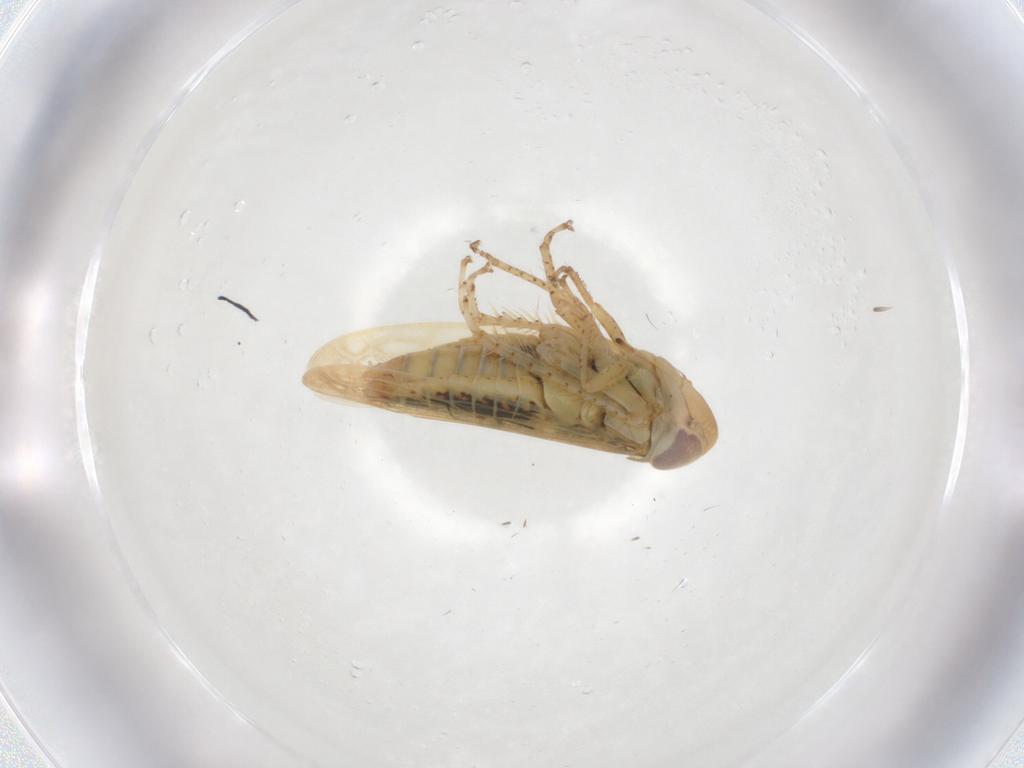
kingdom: Animalia
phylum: Arthropoda
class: Insecta
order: Hemiptera
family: Cicadellidae
